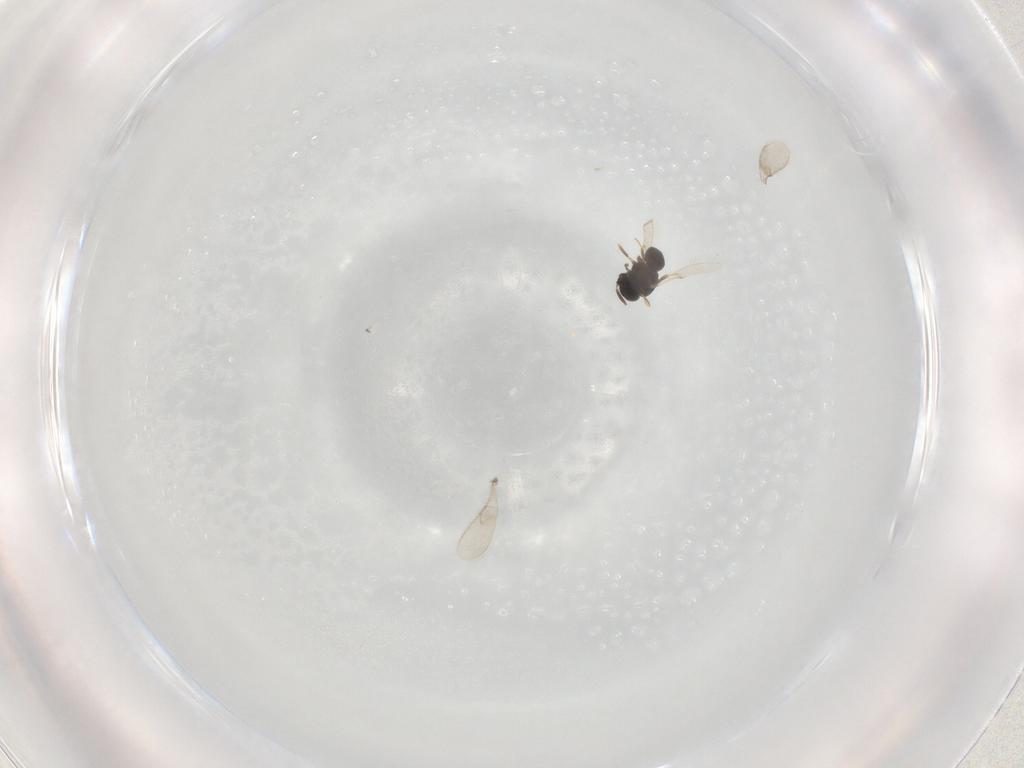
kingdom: Animalia
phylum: Arthropoda
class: Insecta
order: Hymenoptera
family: Scelionidae
